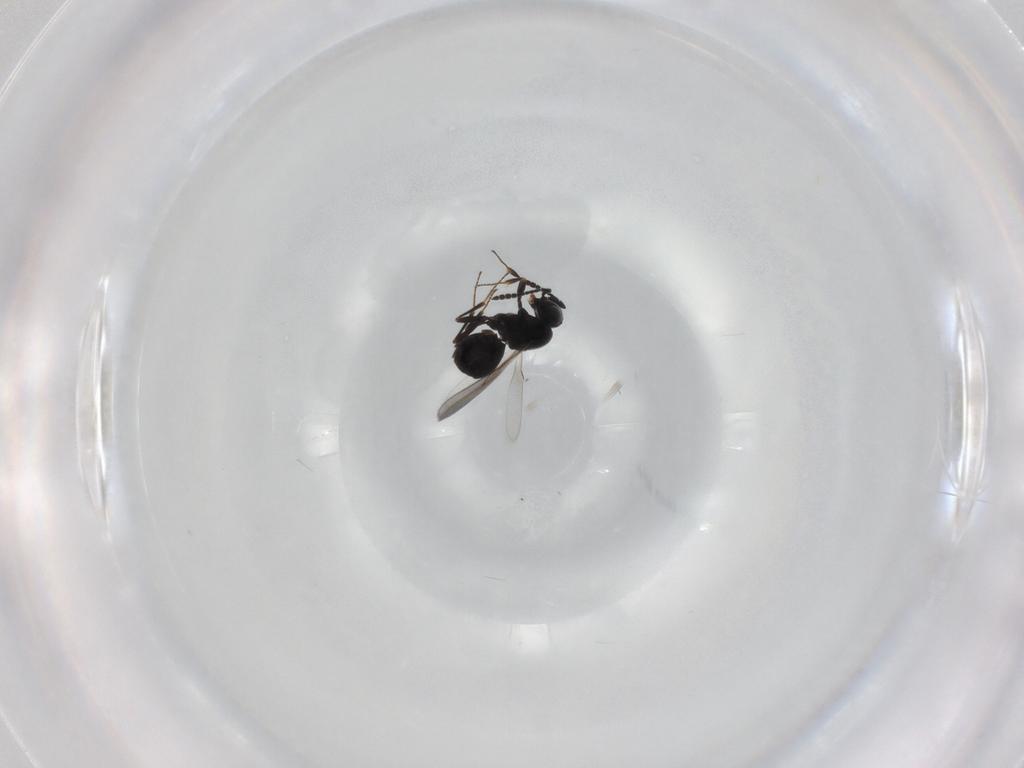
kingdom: Animalia
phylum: Arthropoda
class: Insecta
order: Hymenoptera
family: Scelionidae
